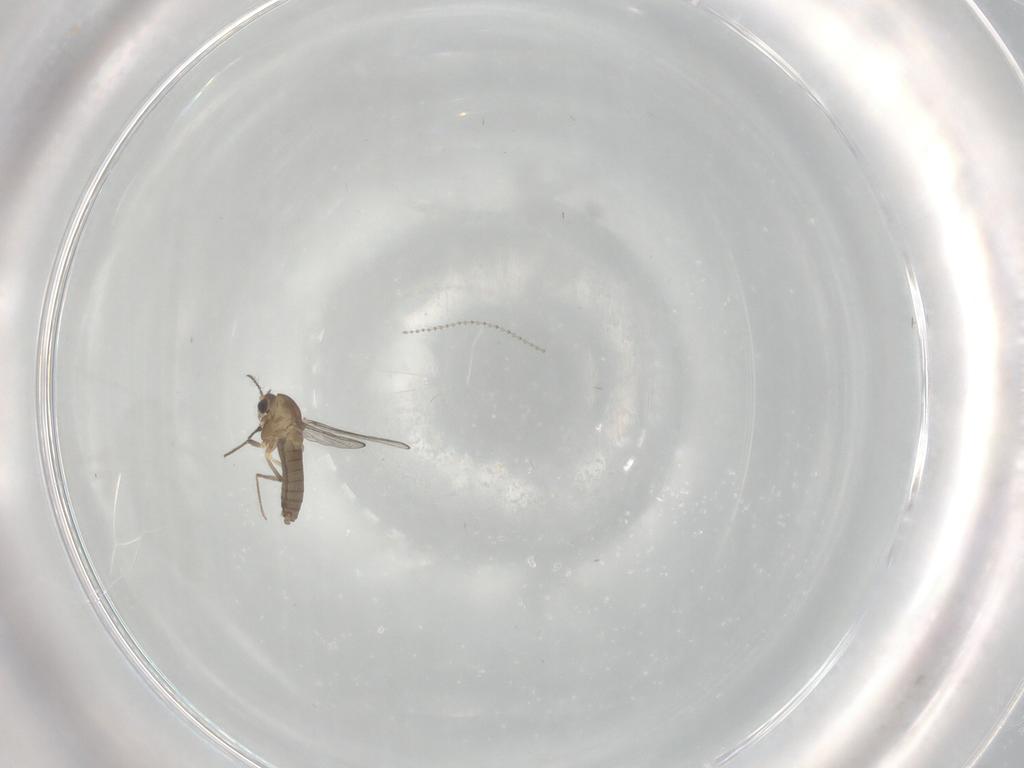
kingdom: Animalia
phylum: Arthropoda
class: Insecta
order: Diptera
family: Chironomidae
